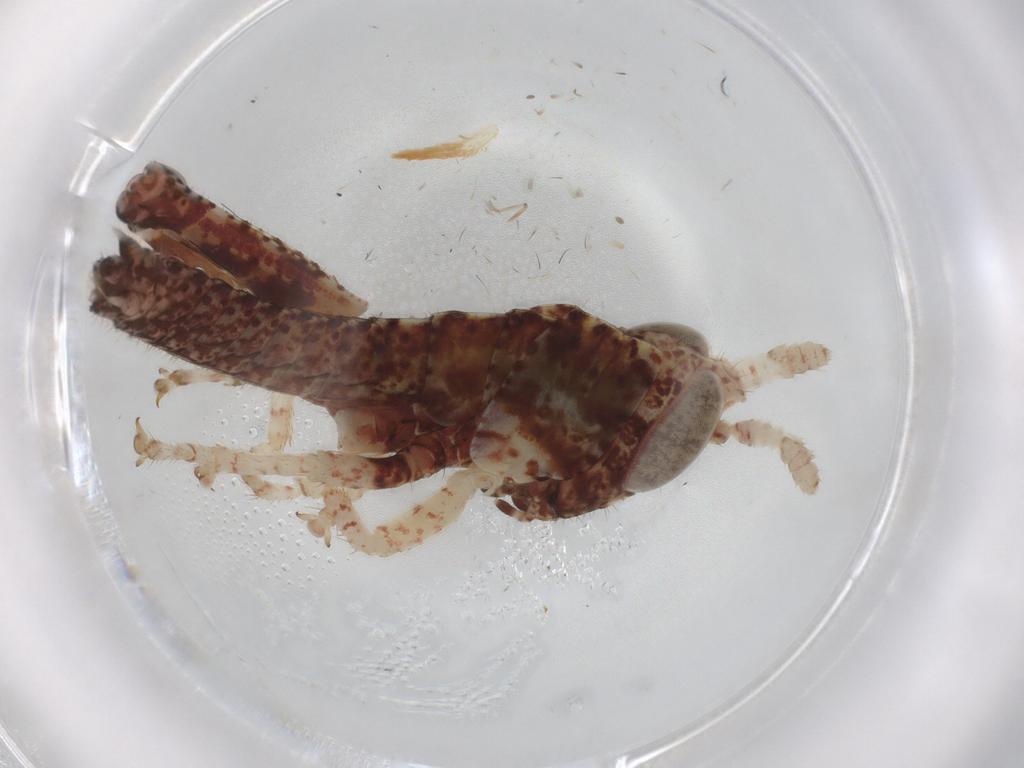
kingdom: Animalia
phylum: Arthropoda
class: Insecta
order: Orthoptera
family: Acrididae
